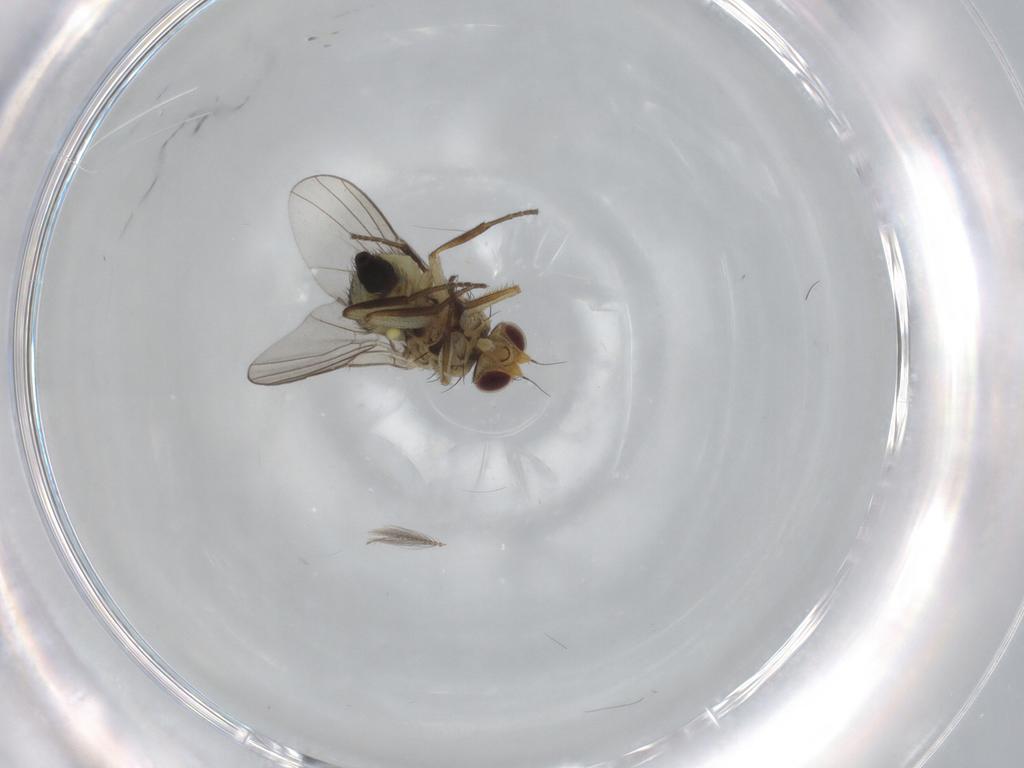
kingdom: Animalia
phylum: Arthropoda
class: Insecta
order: Diptera
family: Agromyzidae
